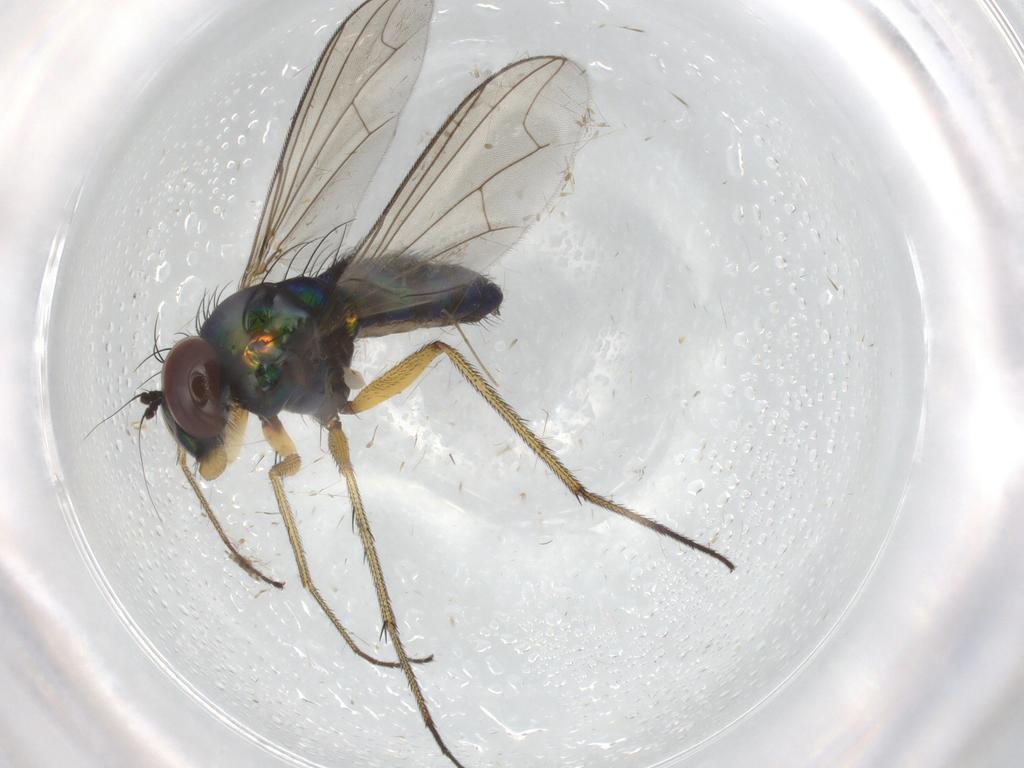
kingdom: Animalia
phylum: Arthropoda
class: Insecta
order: Diptera
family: Dolichopodidae
